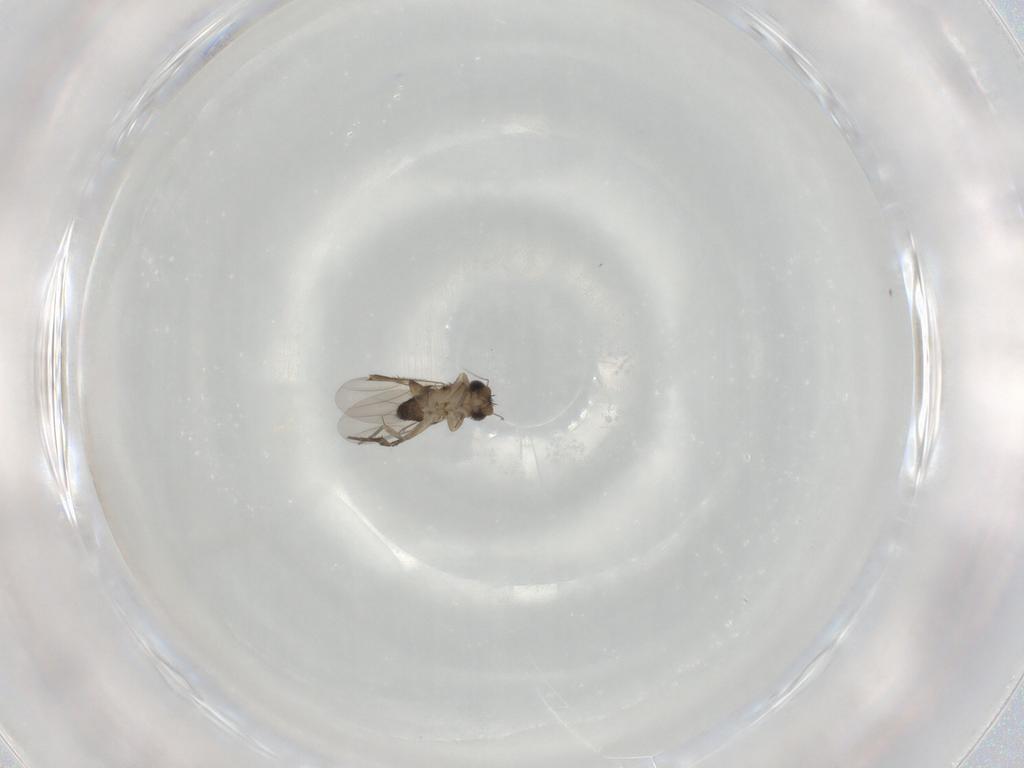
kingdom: Animalia
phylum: Arthropoda
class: Insecta
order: Diptera
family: Phoridae
